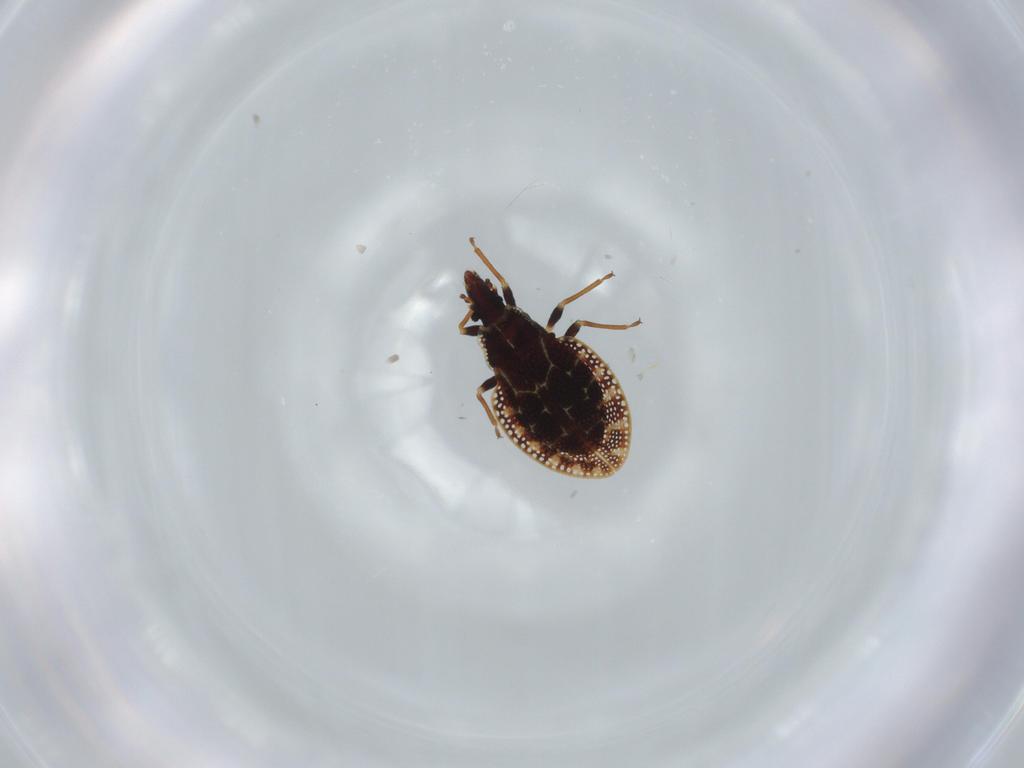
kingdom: Animalia
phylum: Arthropoda
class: Insecta
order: Hemiptera
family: Tingidae
